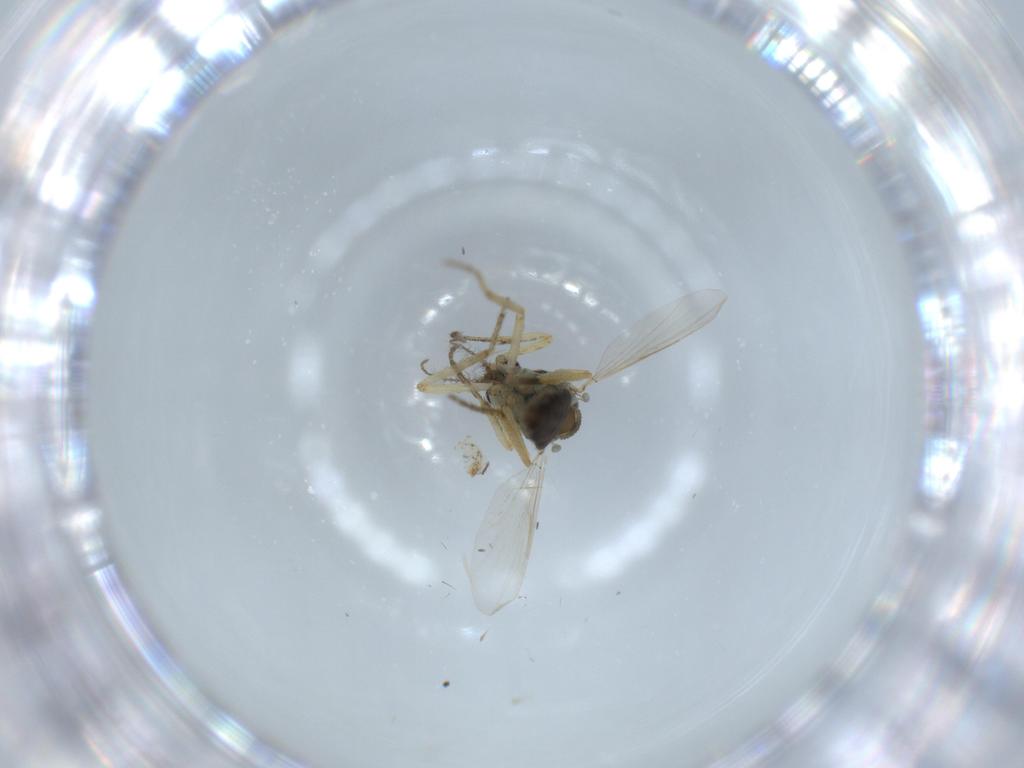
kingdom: Animalia
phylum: Arthropoda
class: Insecta
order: Diptera
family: Ceratopogonidae
